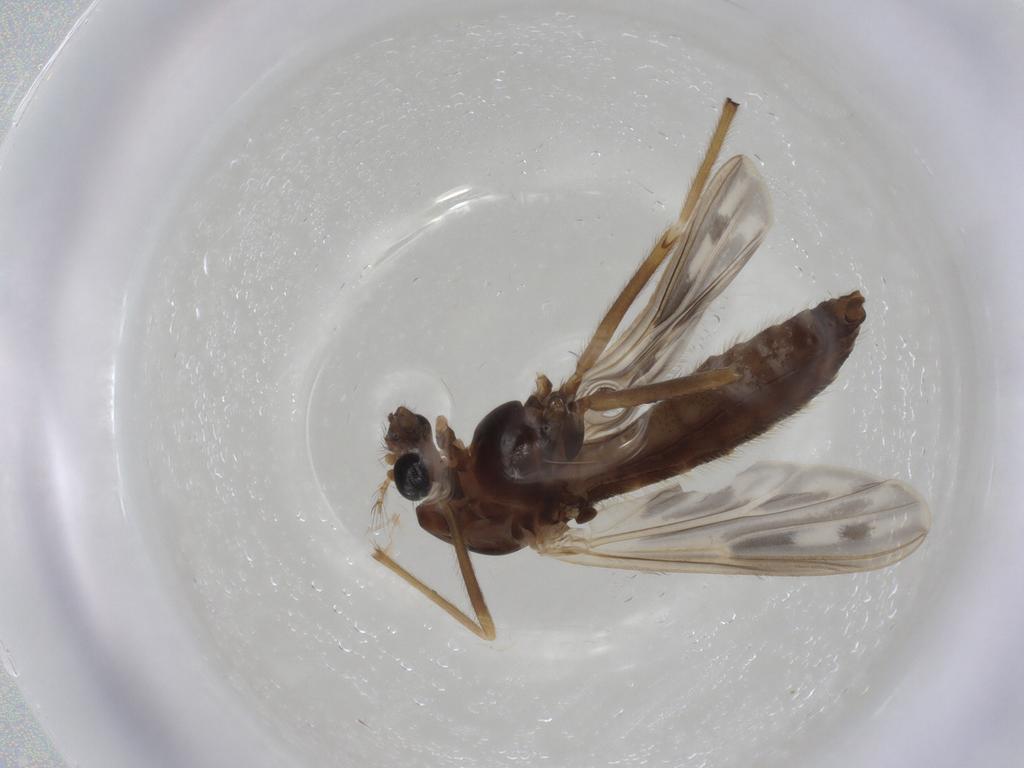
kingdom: Animalia
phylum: Arthropoda
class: Insecta
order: Diptera
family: Chironomidae
